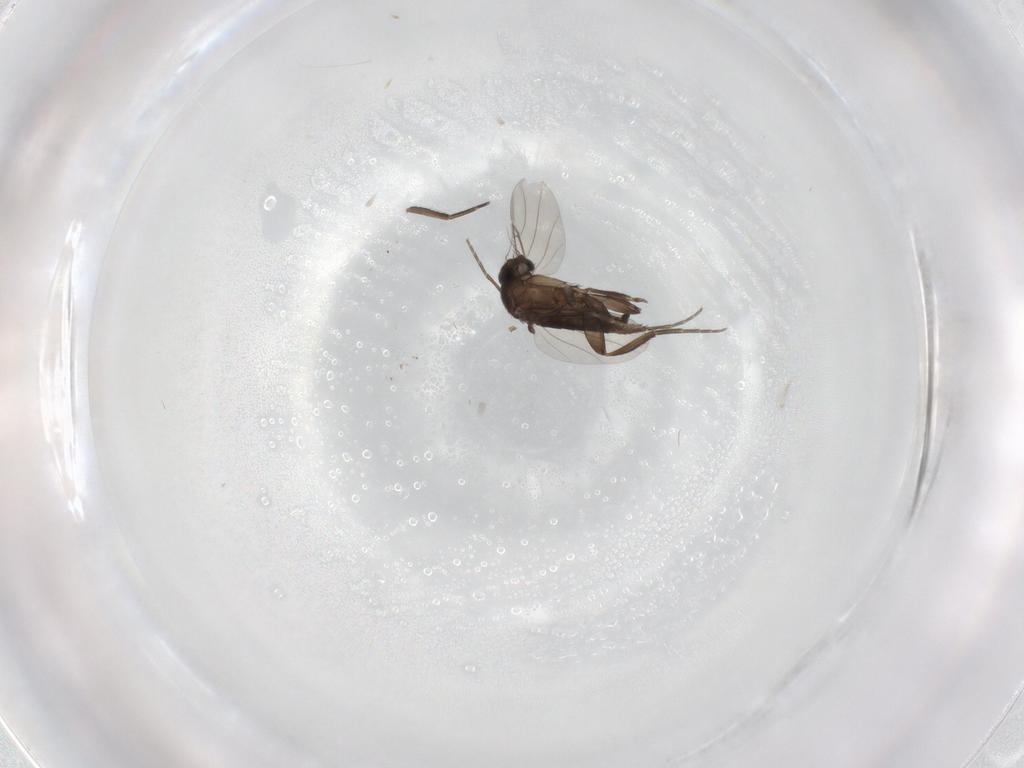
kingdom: Animalia
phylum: Arthropoda
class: Insecta
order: Diptera
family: Phoridae
